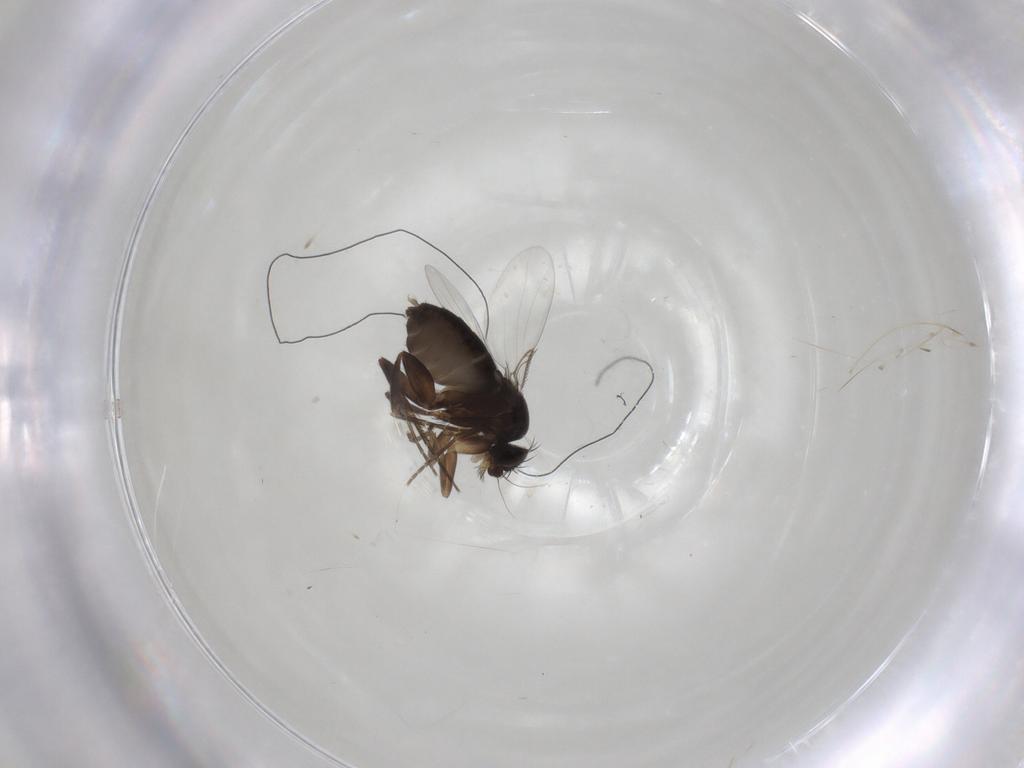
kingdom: Animalia
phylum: Arthropoda
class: Insecta
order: Diptera
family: Phoridae
